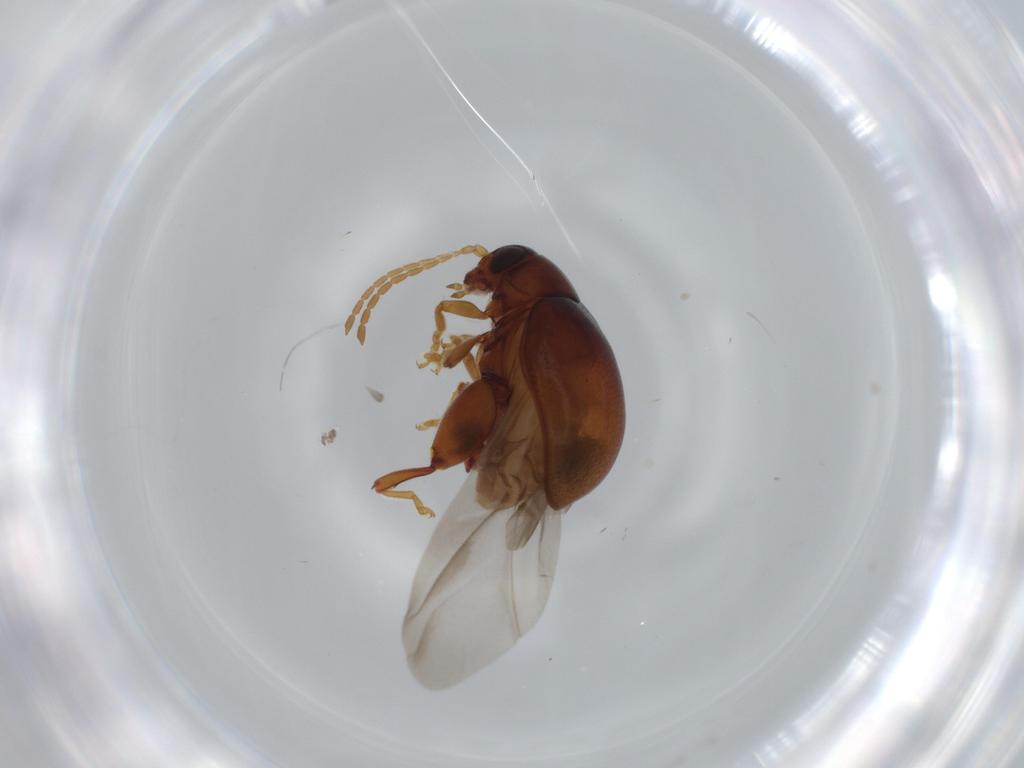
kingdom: Animalia
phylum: Arthropoda
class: Insecta
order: Coleoptera
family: Chrysomelidae
